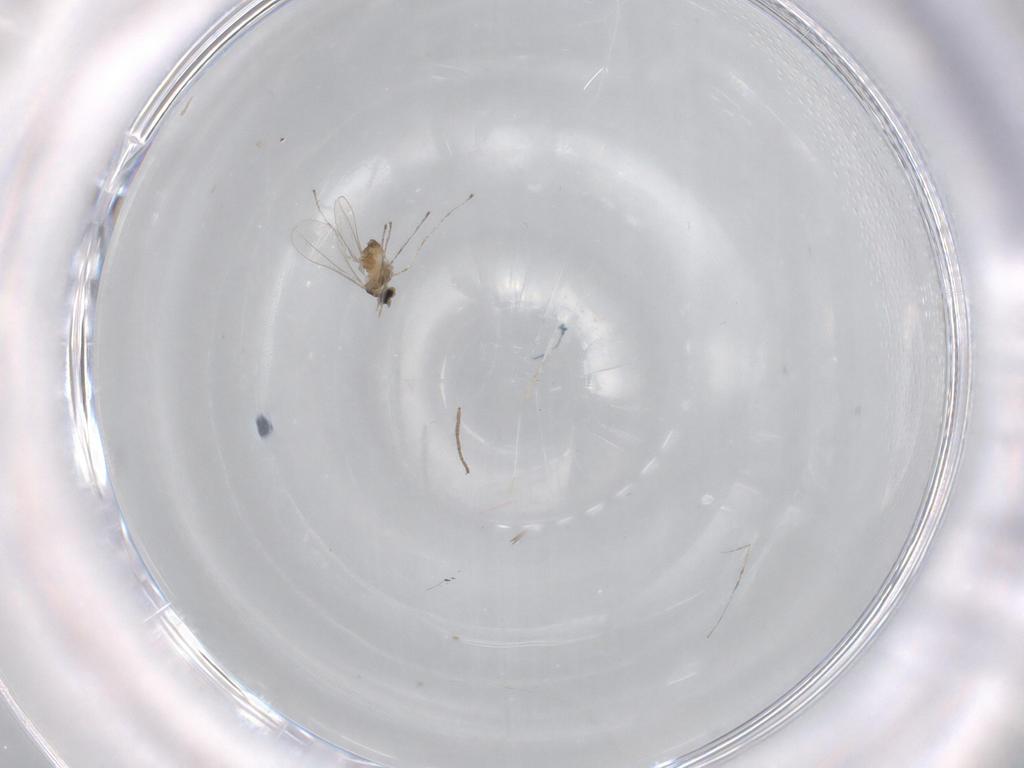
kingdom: Animalia
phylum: Arthropoda
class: Insecta
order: Diptera
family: Cecidomyiidae
